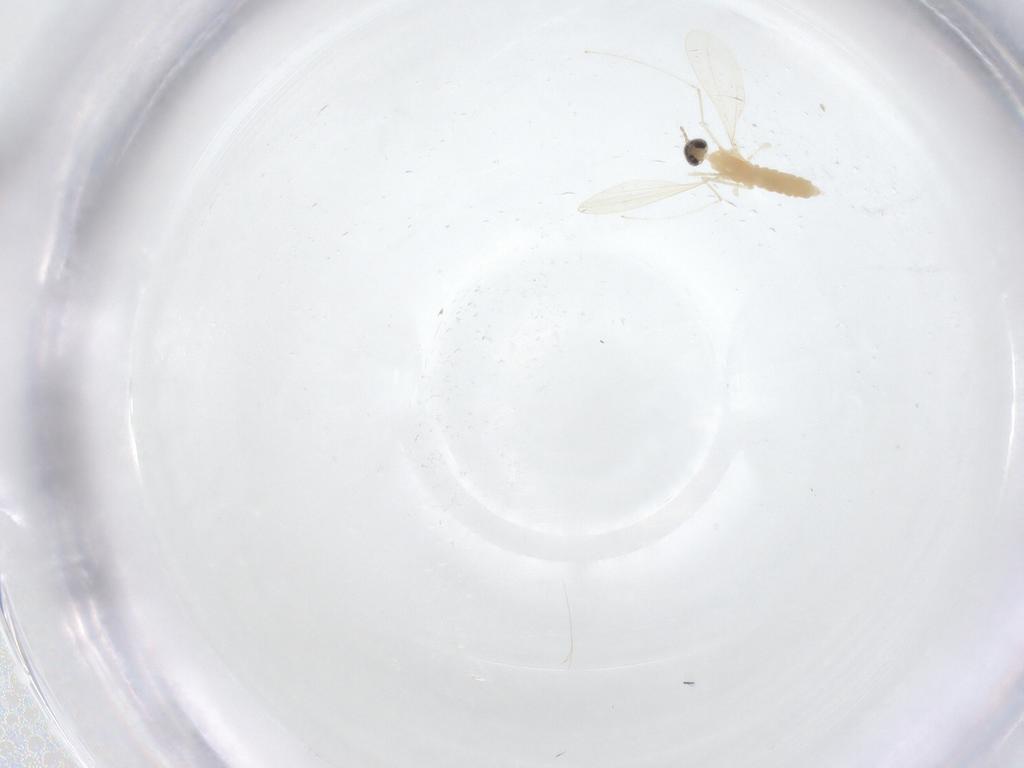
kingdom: Animalia
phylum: Arthropoda
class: Insecta
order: Diptera
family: Cecidomyiidae
